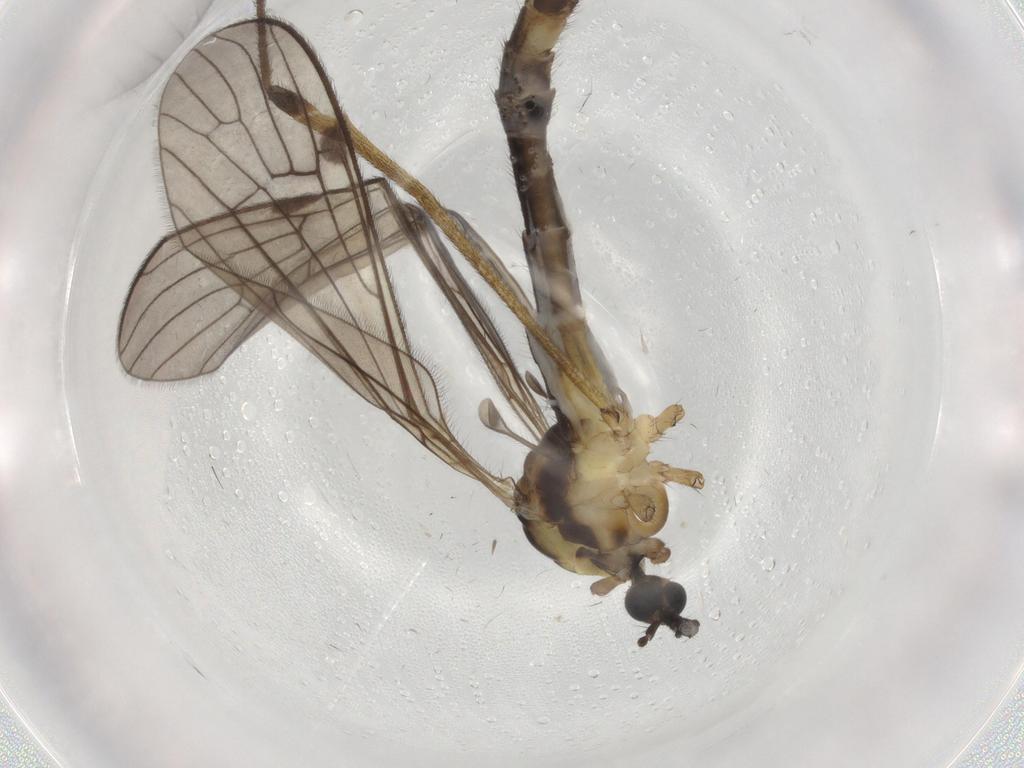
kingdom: Animalia
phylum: Arthropoda
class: Insecta
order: Diptera
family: Limoniidae
